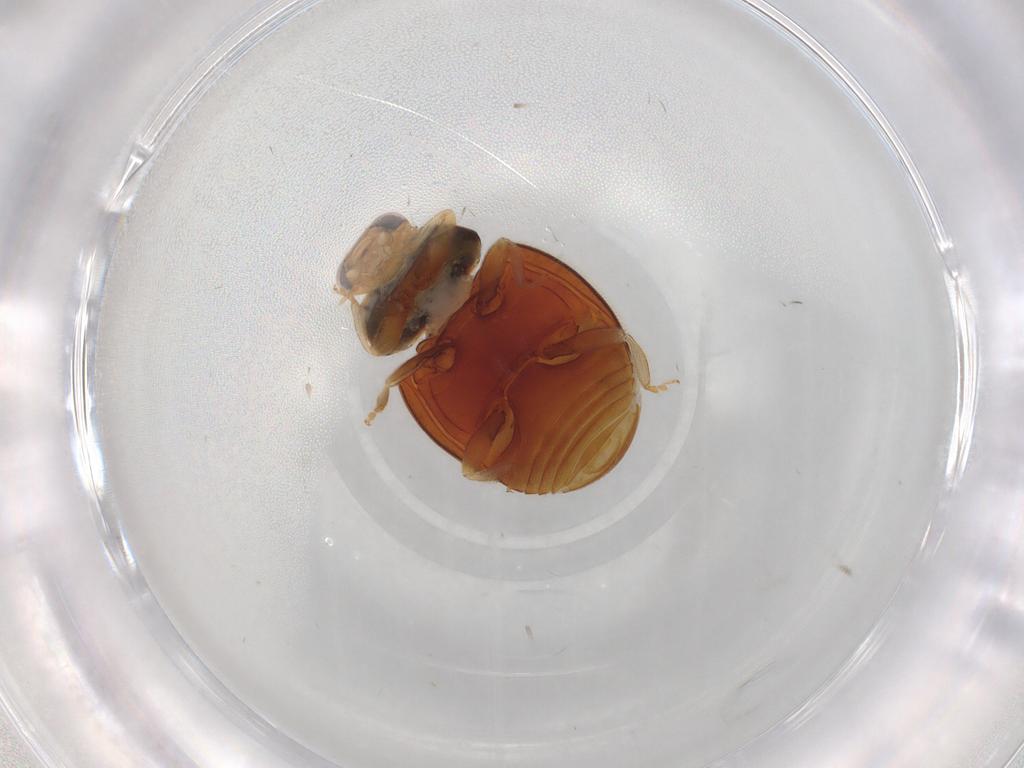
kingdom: Animalia
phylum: Arthropoda
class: Insecta
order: Coleoptera
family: Coccinellidae
